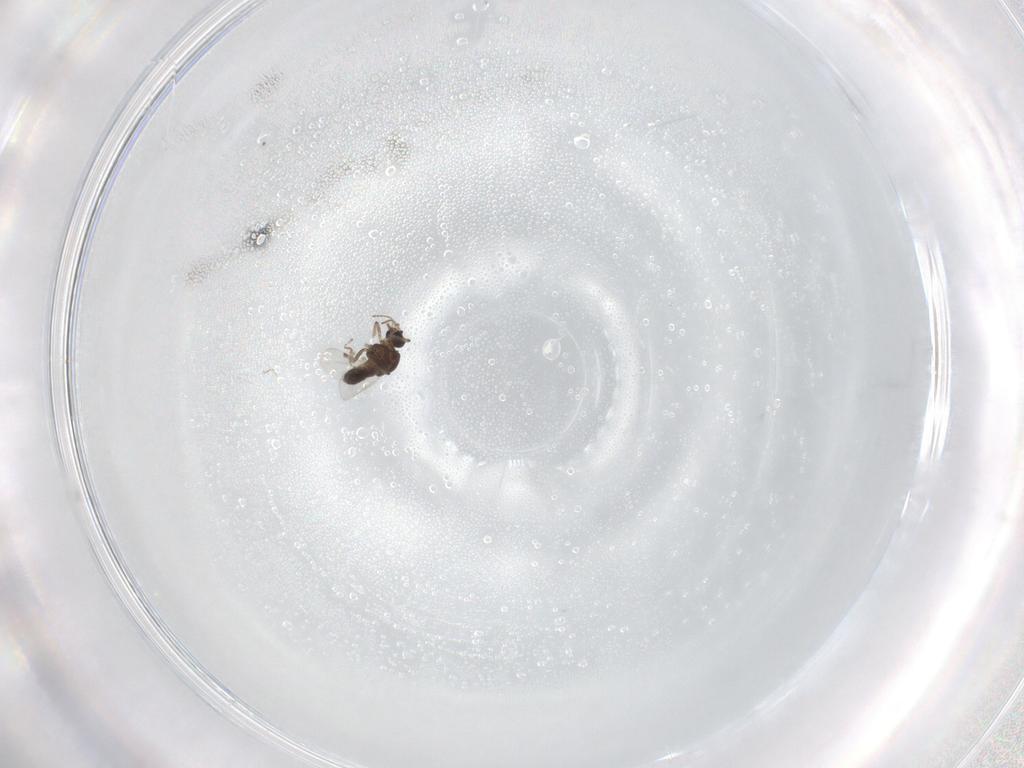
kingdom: Animalia
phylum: Arthropoda
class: Insecta
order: Diptera
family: Ceratopogonidae
